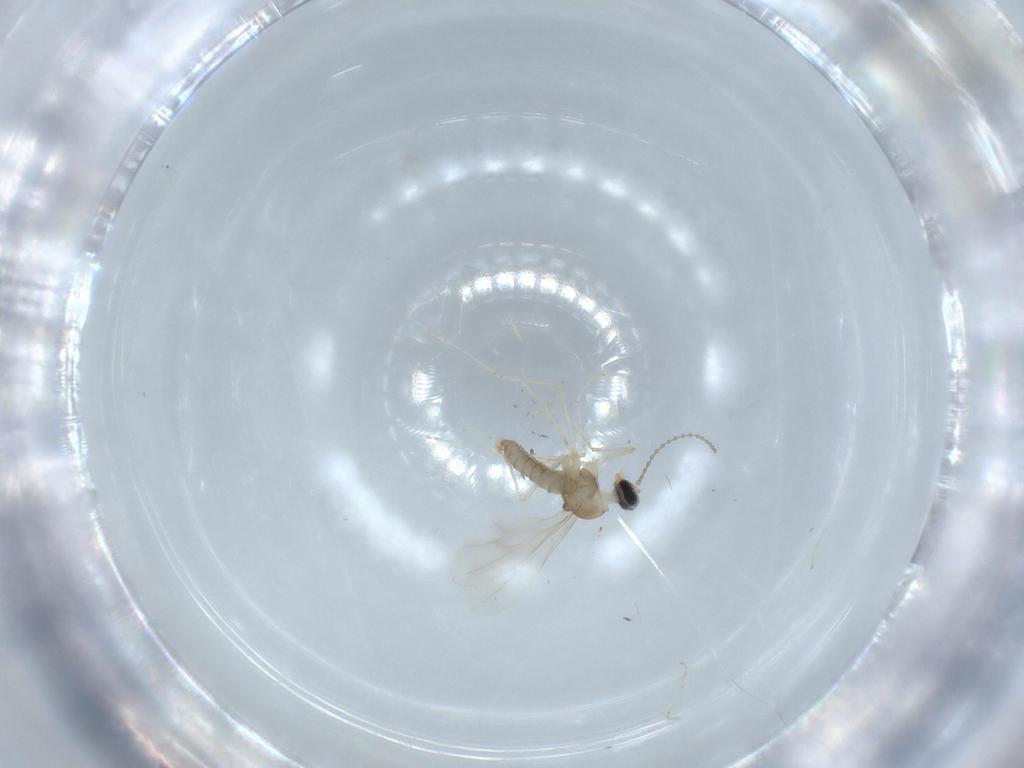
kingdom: Animalia
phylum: Arthropoda
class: Insecta
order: Diptera
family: Cecidomyiidae
